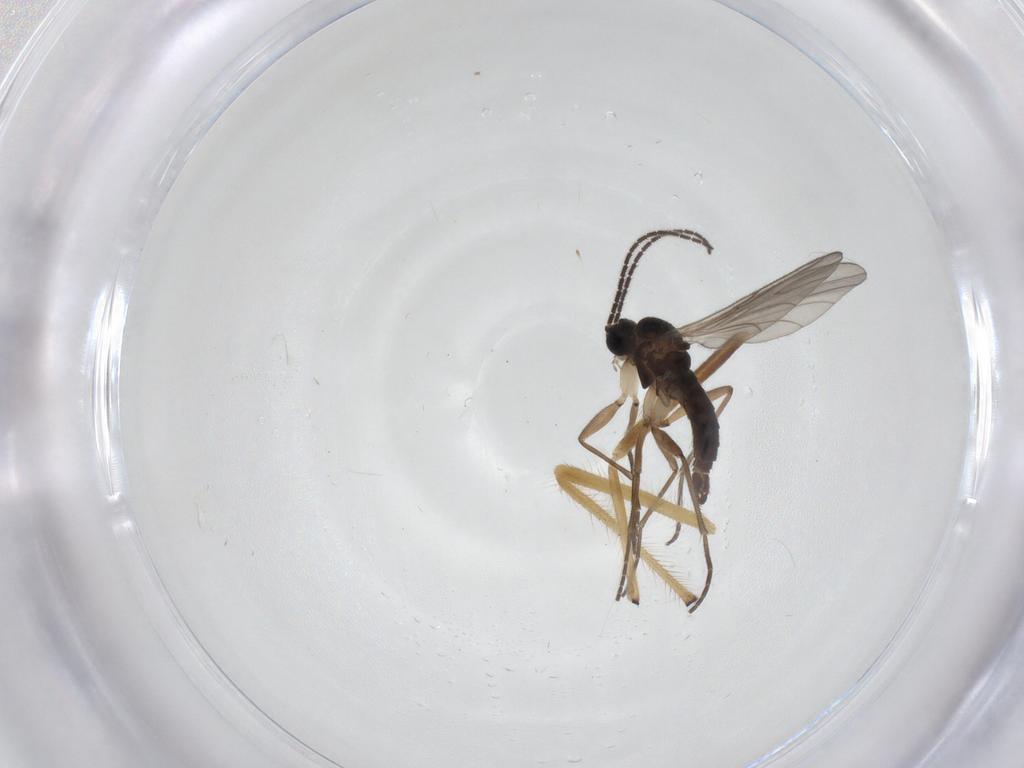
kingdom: Animalia
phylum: Arthropoda
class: Insecta
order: Diptera
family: Sciaridae
